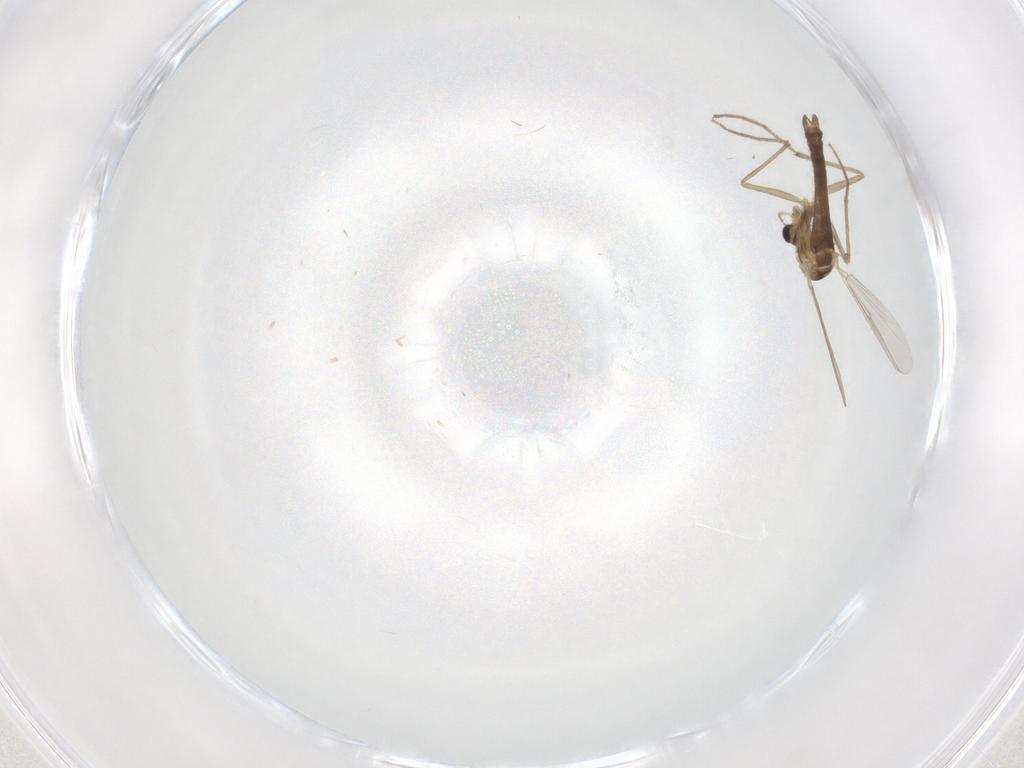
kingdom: Animalia
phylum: Arthropoda
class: Insecta
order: Diptera
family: Chironomidae
